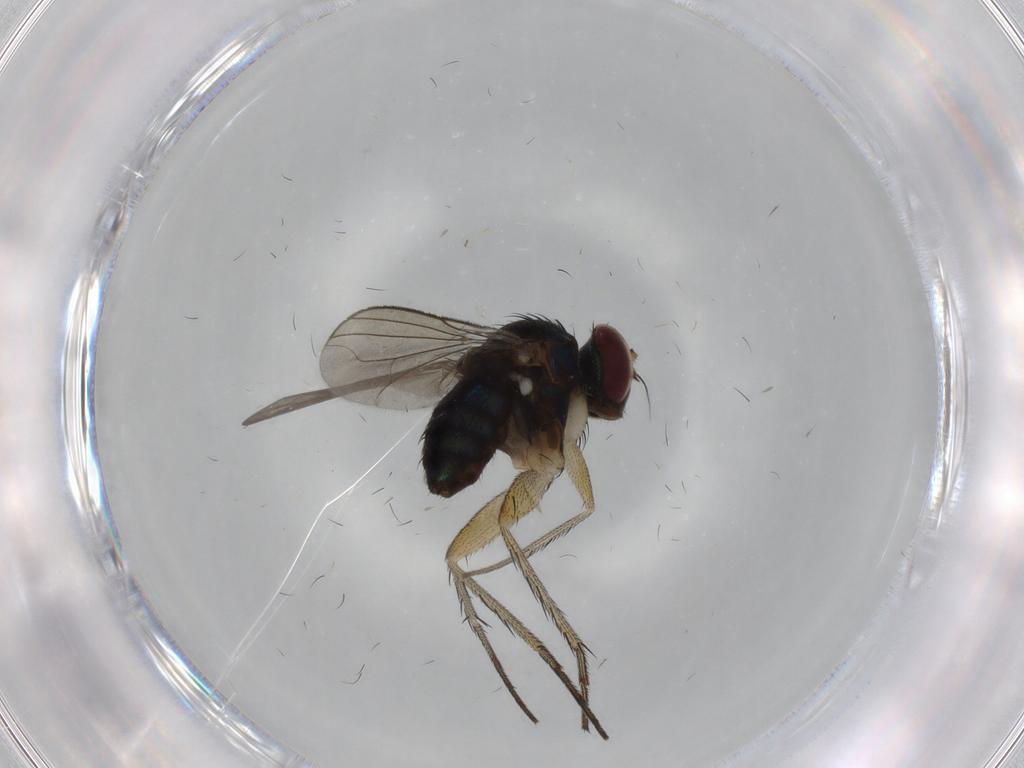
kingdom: Animalia
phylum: Arthropoda
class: Insecta
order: Diptera
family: Dolichopodidae
